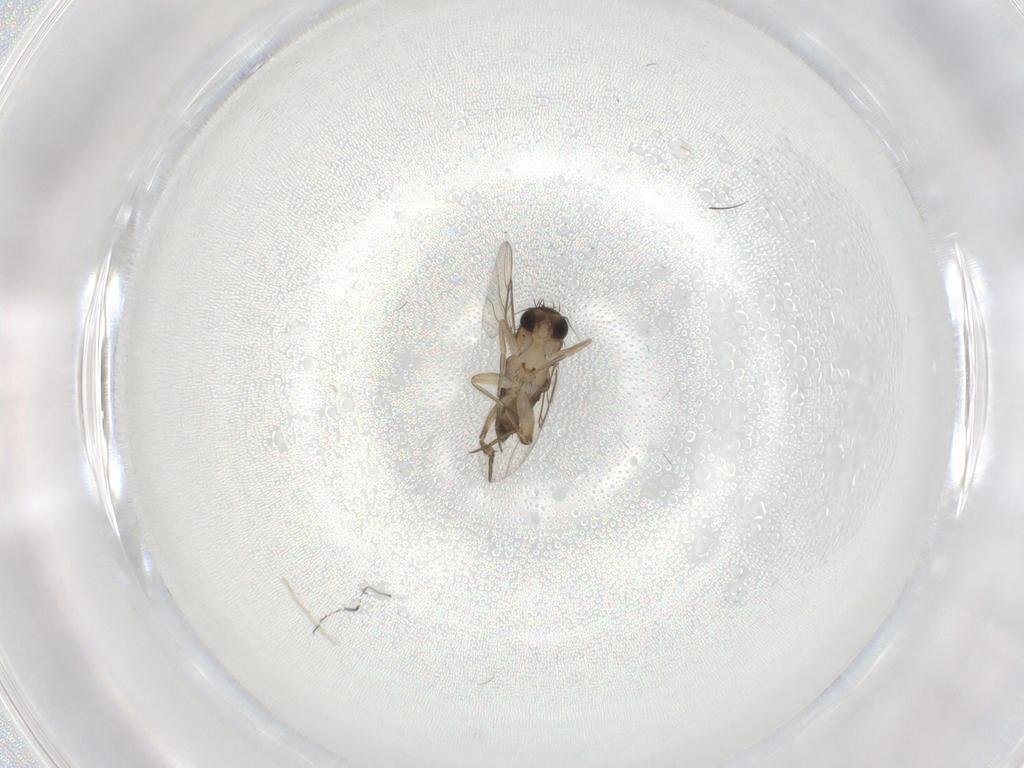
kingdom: Animalia
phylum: Arthropoda
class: Insecta
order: Diptera
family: Phoridae
